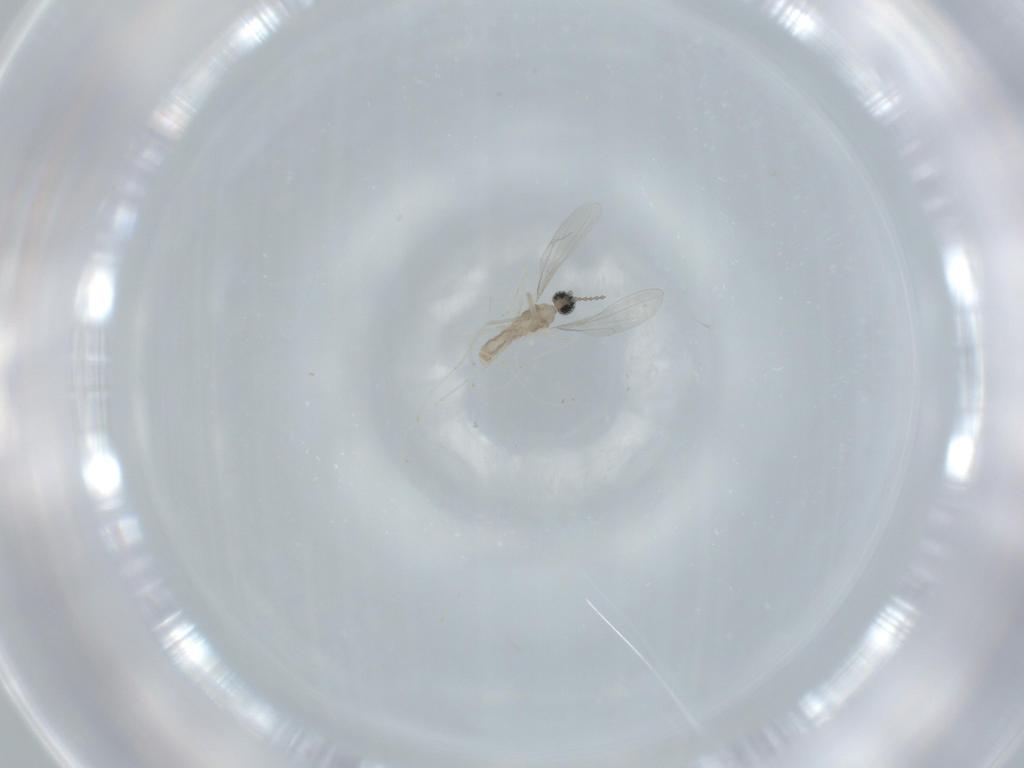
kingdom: Animalia
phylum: Arthropoda
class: Insecta
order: Diptera
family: Cecidomyiidae
